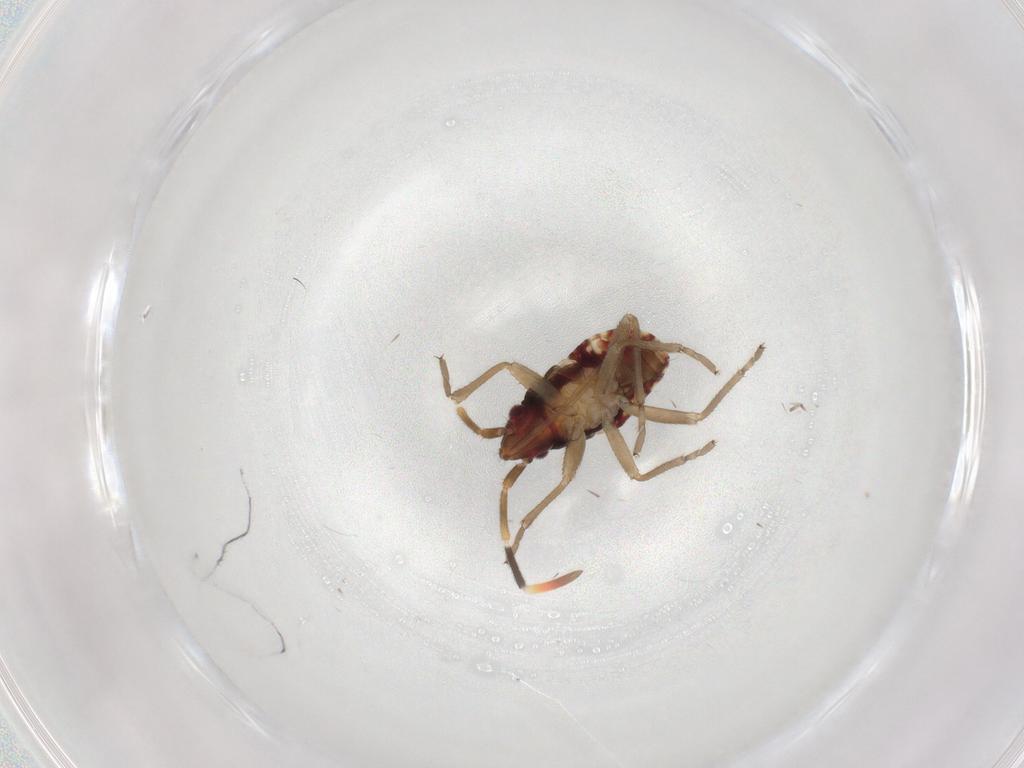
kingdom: Animalia
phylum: Arthropoda
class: Insecta
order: Hemiptera
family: Rhyparochromidae
